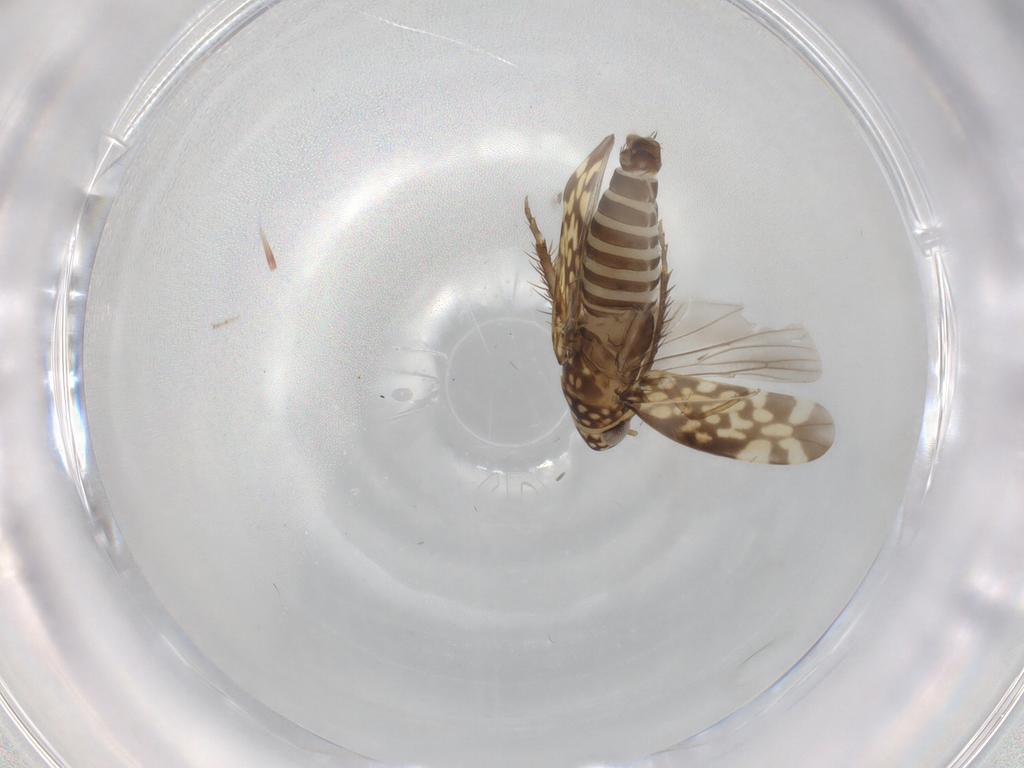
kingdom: Animalia
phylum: Arthropoda
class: Insecta
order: Hemiptera
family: Cicadellidae
